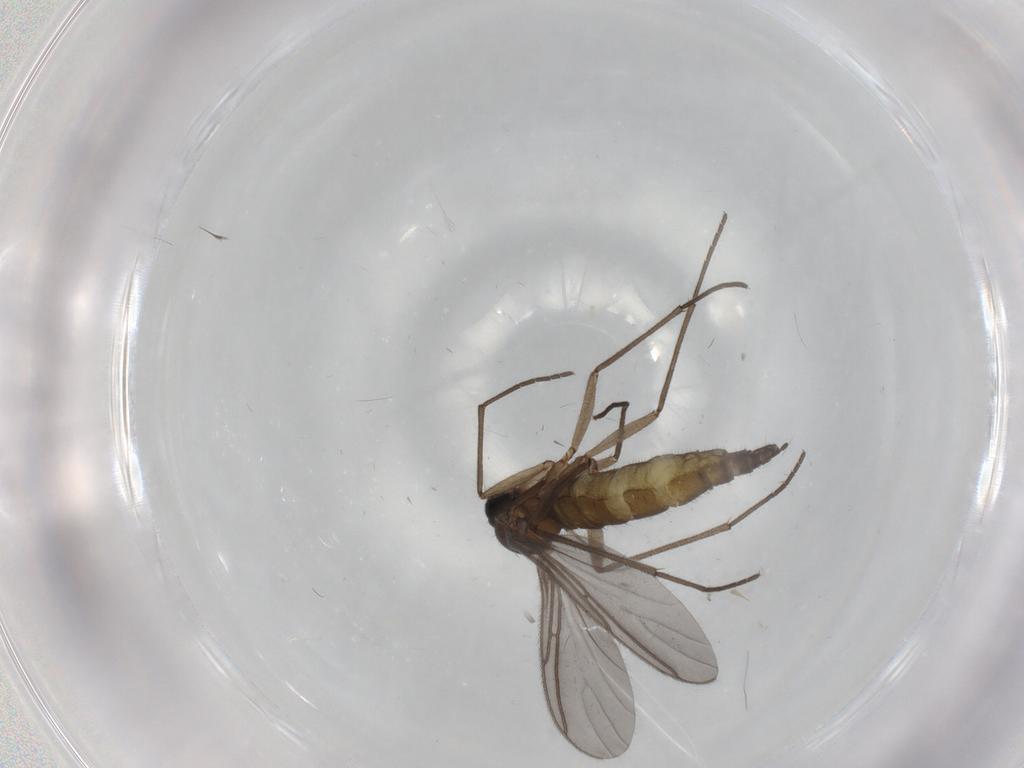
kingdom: Animalia
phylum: Arthropoda
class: Insecta
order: Diptera
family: Sciaridae
